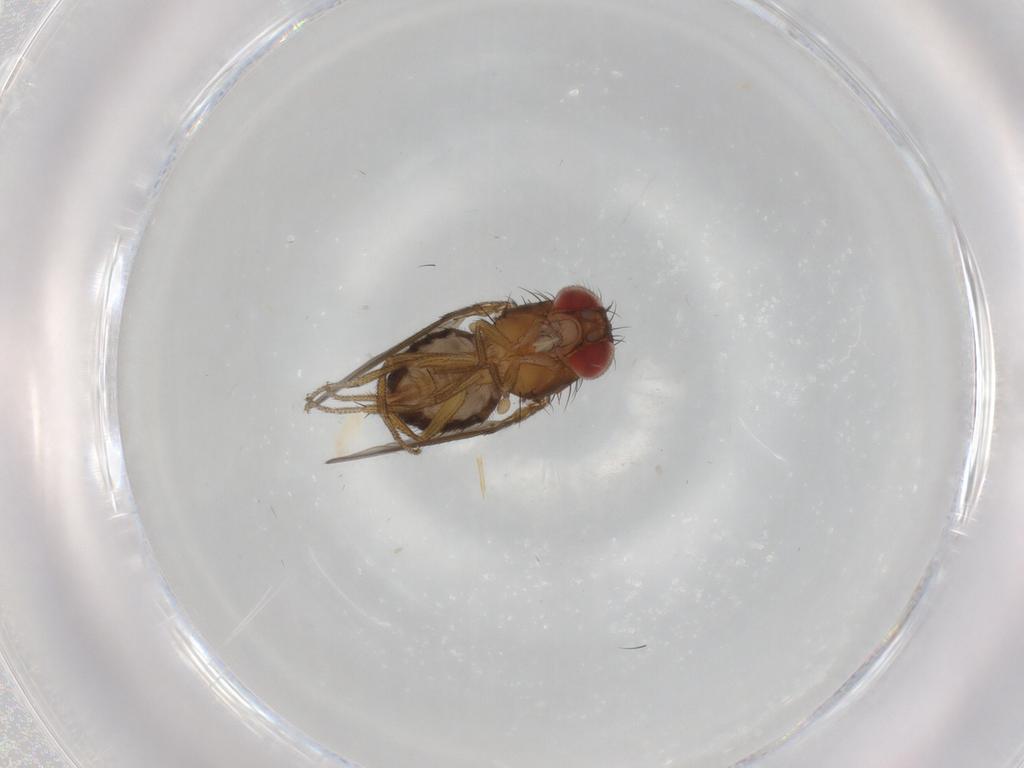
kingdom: Animalia
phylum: Arthropoda
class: Insecta
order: Diptera
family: Drosophilidae
